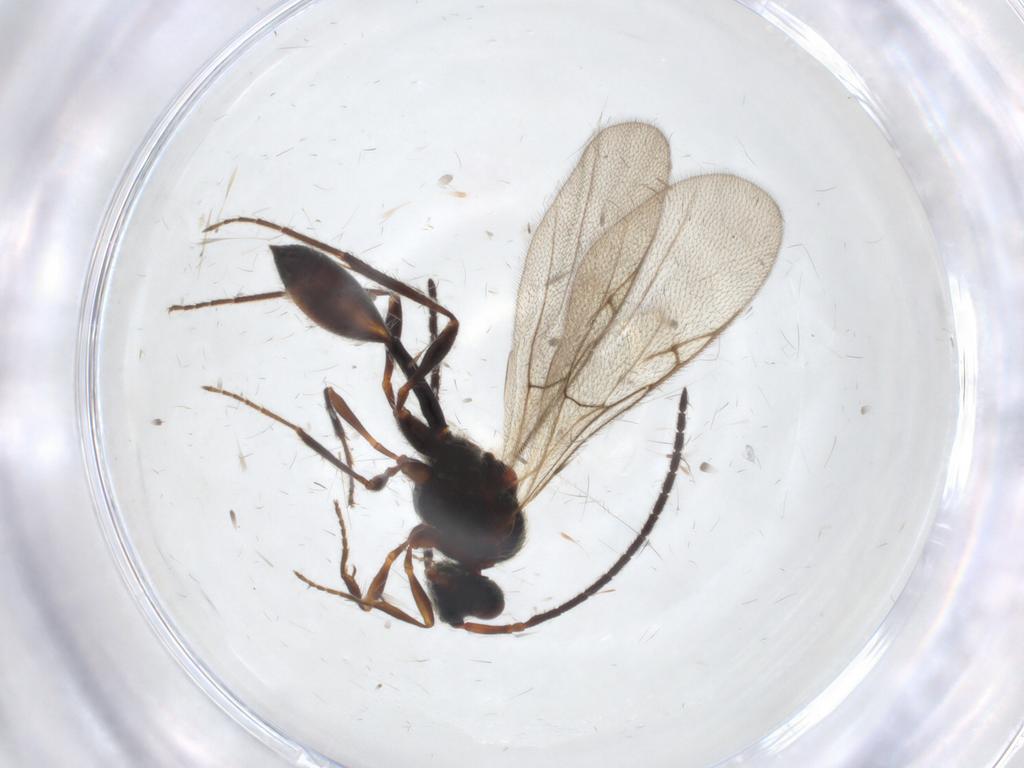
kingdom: Animalia
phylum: Arthropoda
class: Insecta
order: Hymenoptera
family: Diapriidae
